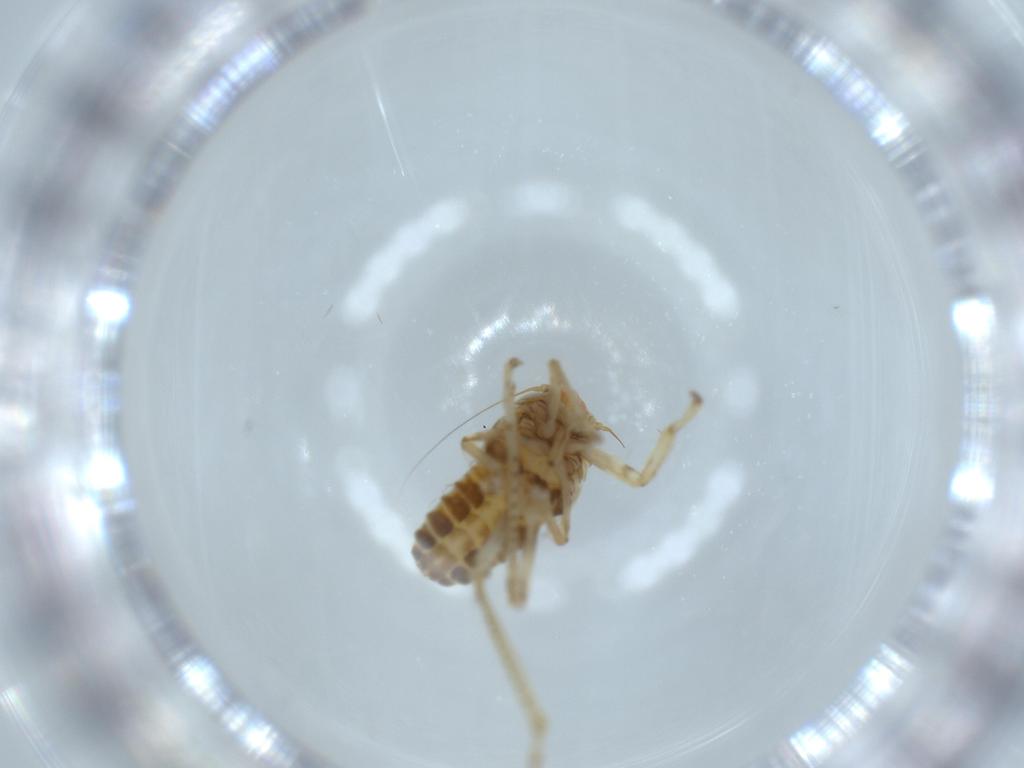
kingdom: Animalia
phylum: Arthropoda
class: Insecta
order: Hemiptera
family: Cicadellidae
